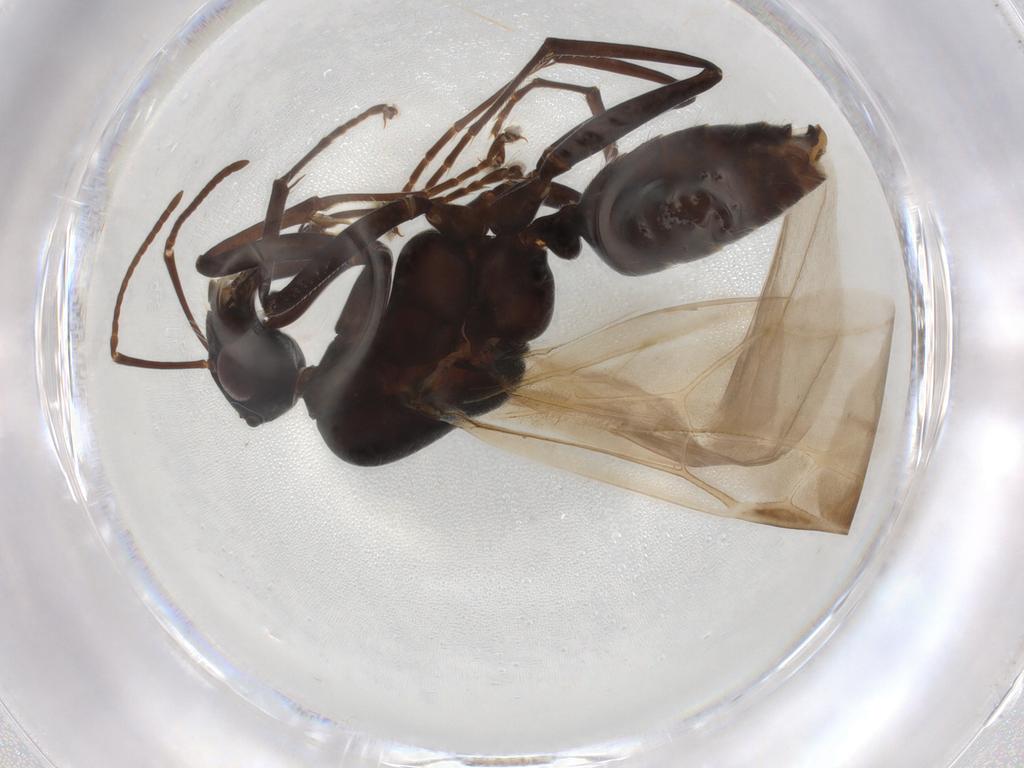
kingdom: Animalia
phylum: Arthropoda
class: Insecta
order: Hymenoptera
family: Formicidae
